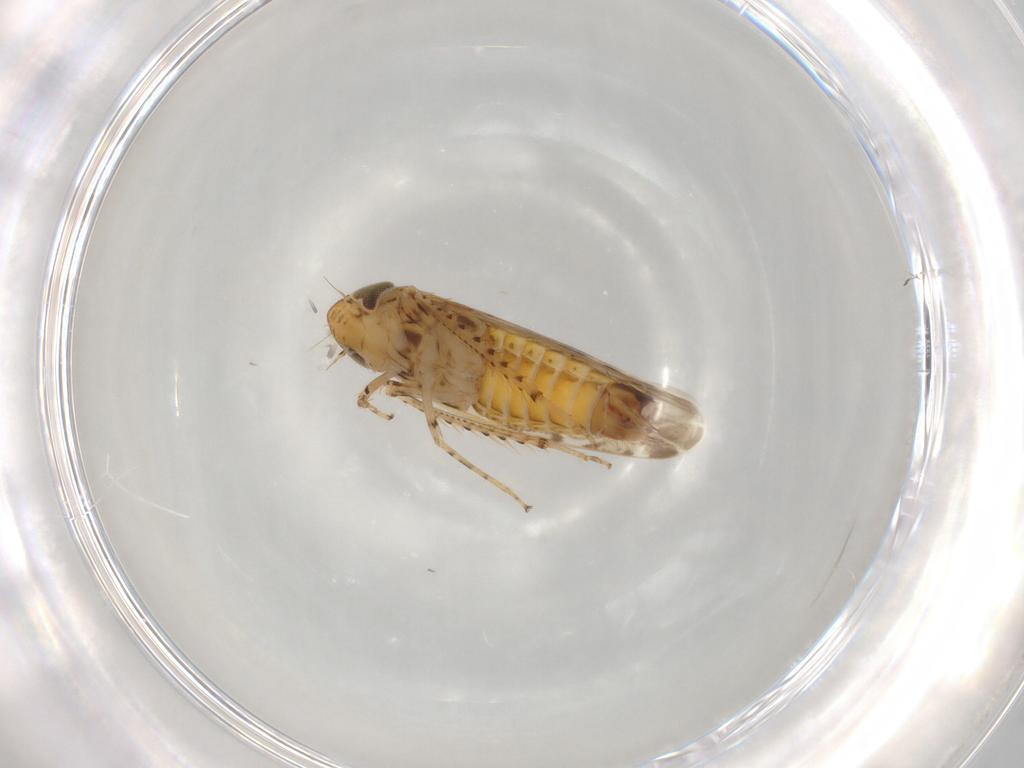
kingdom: Animalia
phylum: Arthropoda
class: Insecta
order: Hemiptera
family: Cicadellidae
